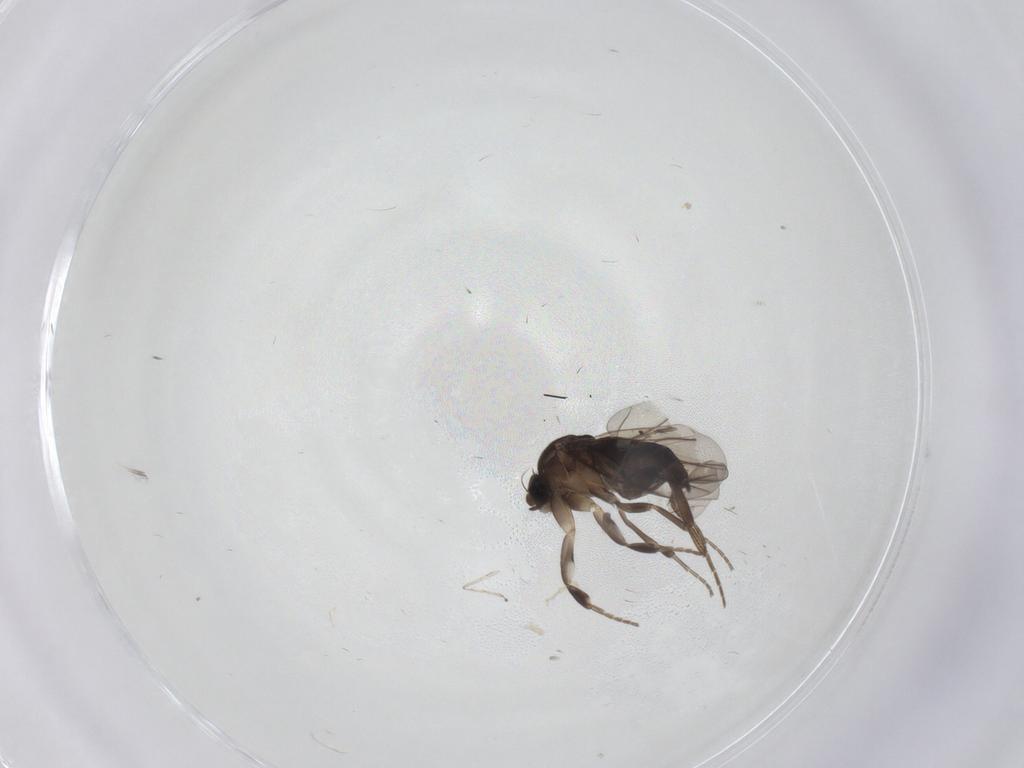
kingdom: Animalia
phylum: Arthropoda
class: Insecta
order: Diptera
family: Phoridae
